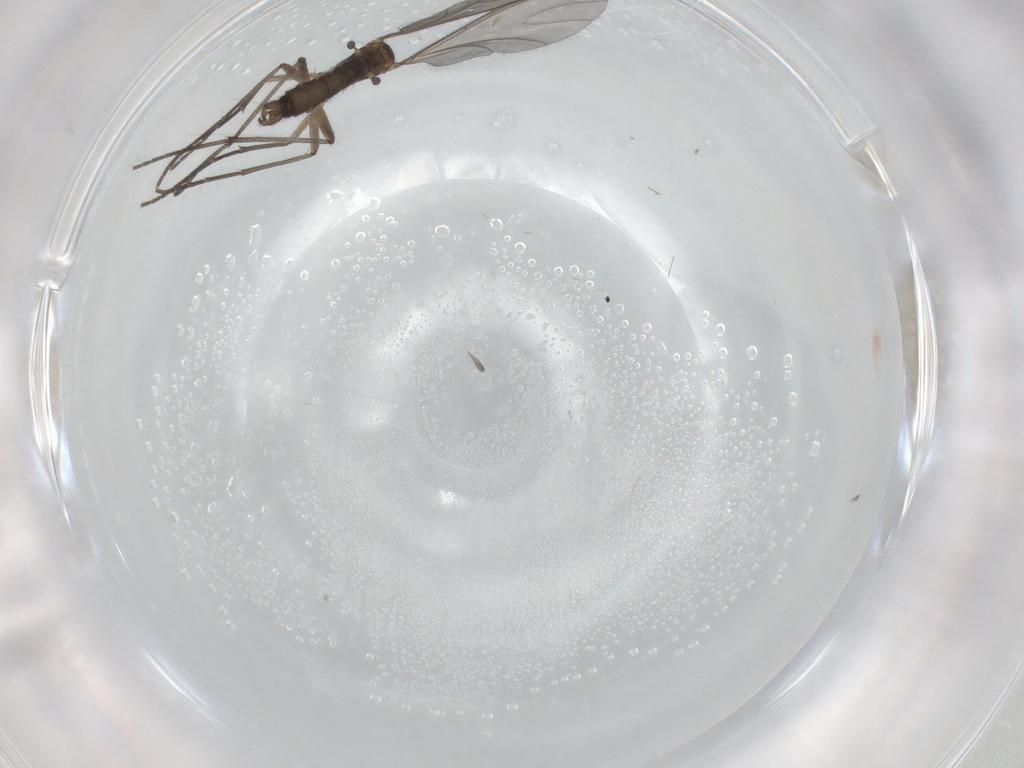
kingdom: Animalia
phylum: Arthropoda
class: Insecta
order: Diptera
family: Sciaridae
